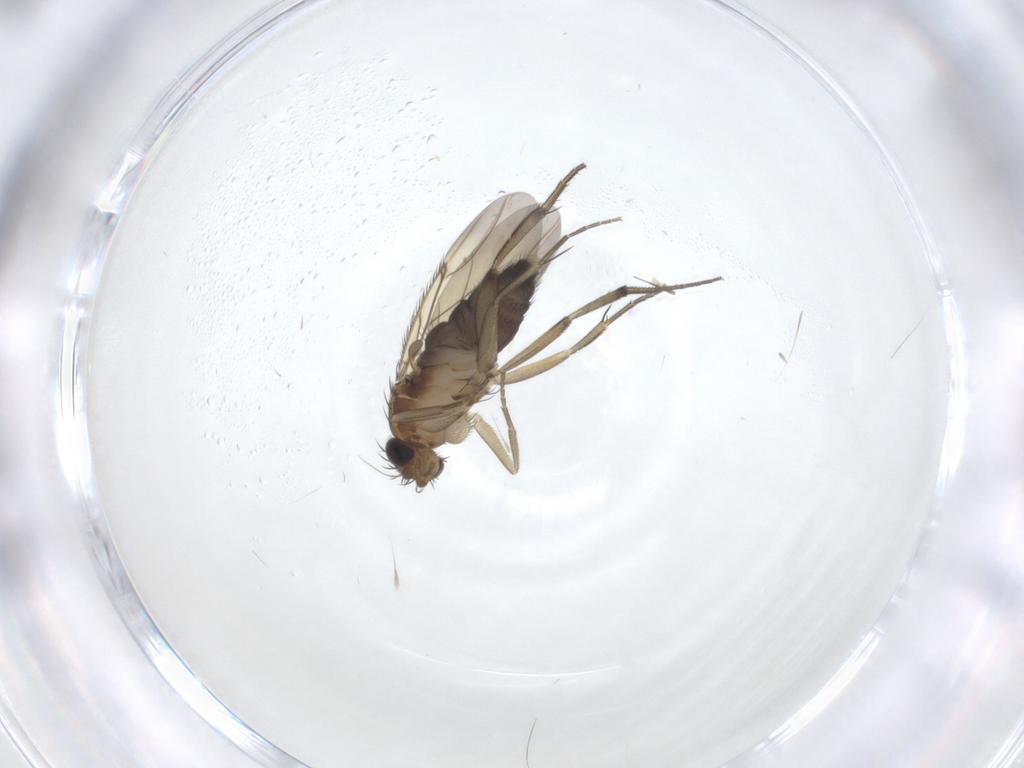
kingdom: Animalia
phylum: Arthropoda
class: Insecta
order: Diptera
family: Phoridae
